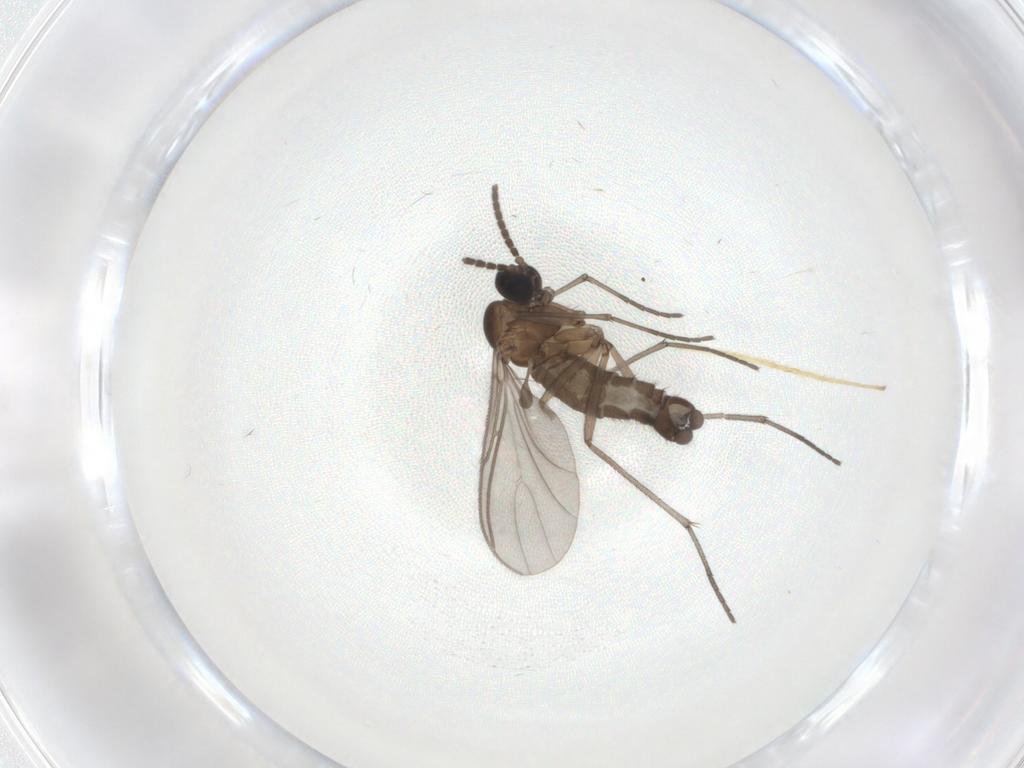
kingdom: Animalia
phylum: Arthropoda
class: Insecta
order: Diptera
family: Sciaridae
